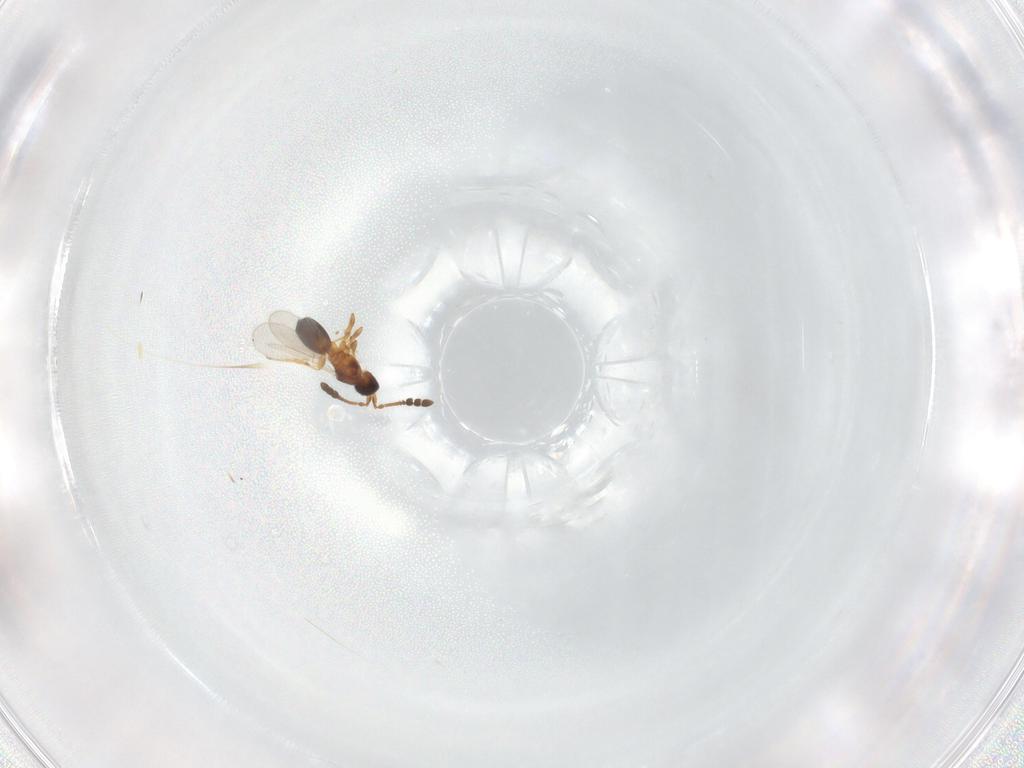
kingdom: Animalia
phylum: Arthropoda
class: Insecta
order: Hymenoptera
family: Diapriidae
